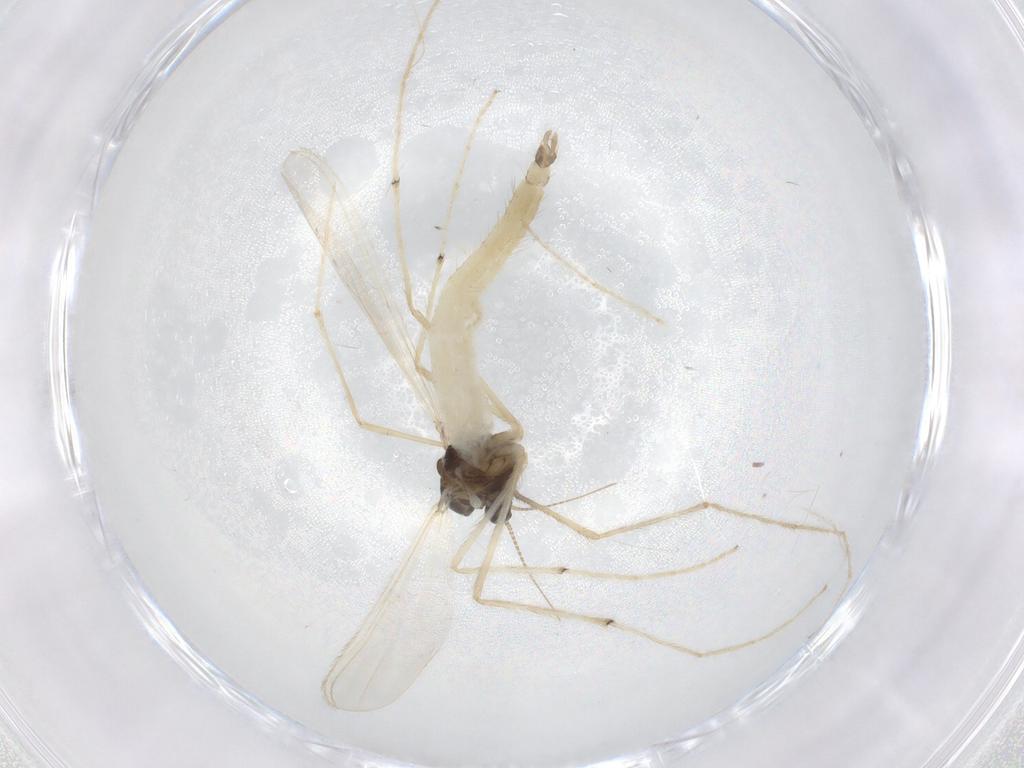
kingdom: Animalia
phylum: Arthropoda
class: Insecta
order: Diptera
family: Chironomidae
